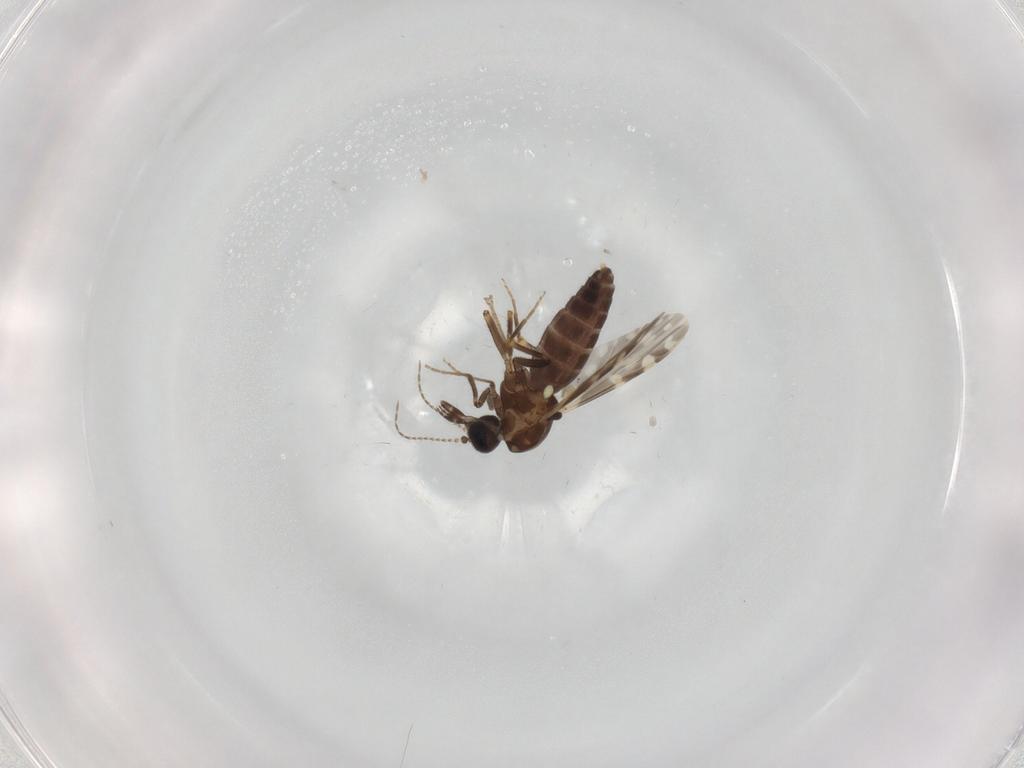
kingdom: Animalia
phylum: Arthropoda
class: Insecta
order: Diptera
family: Ceratopogonidae
